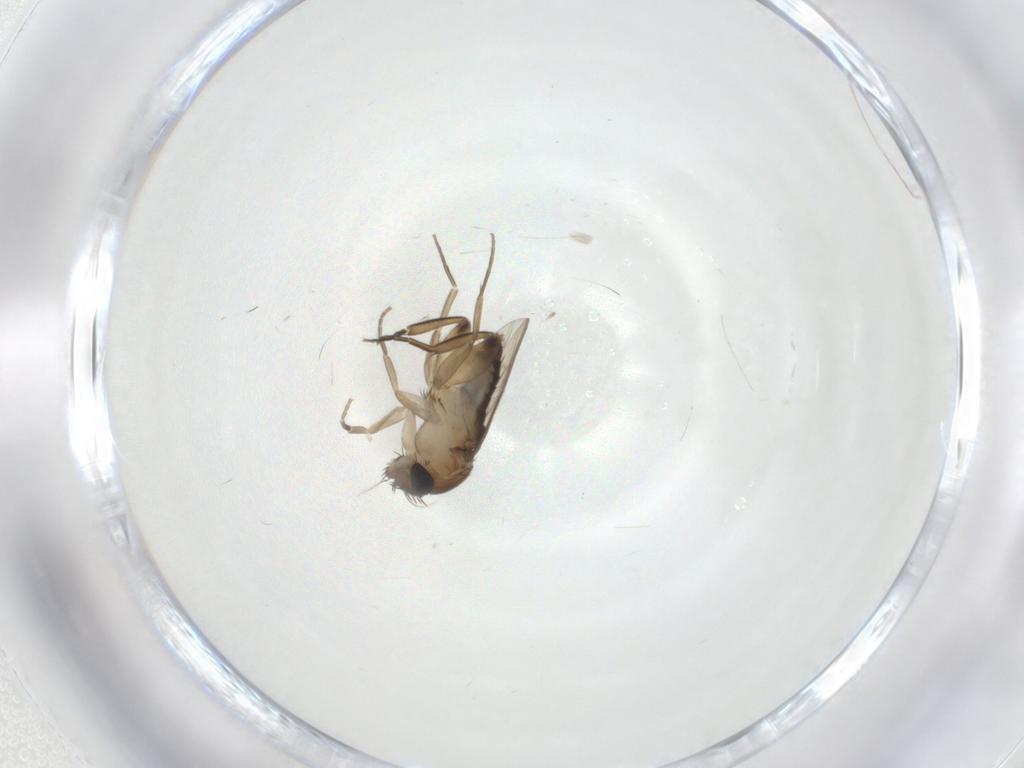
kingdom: Animalia
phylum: Arthropoda
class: Insecta
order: Diptera
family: Phoridae
